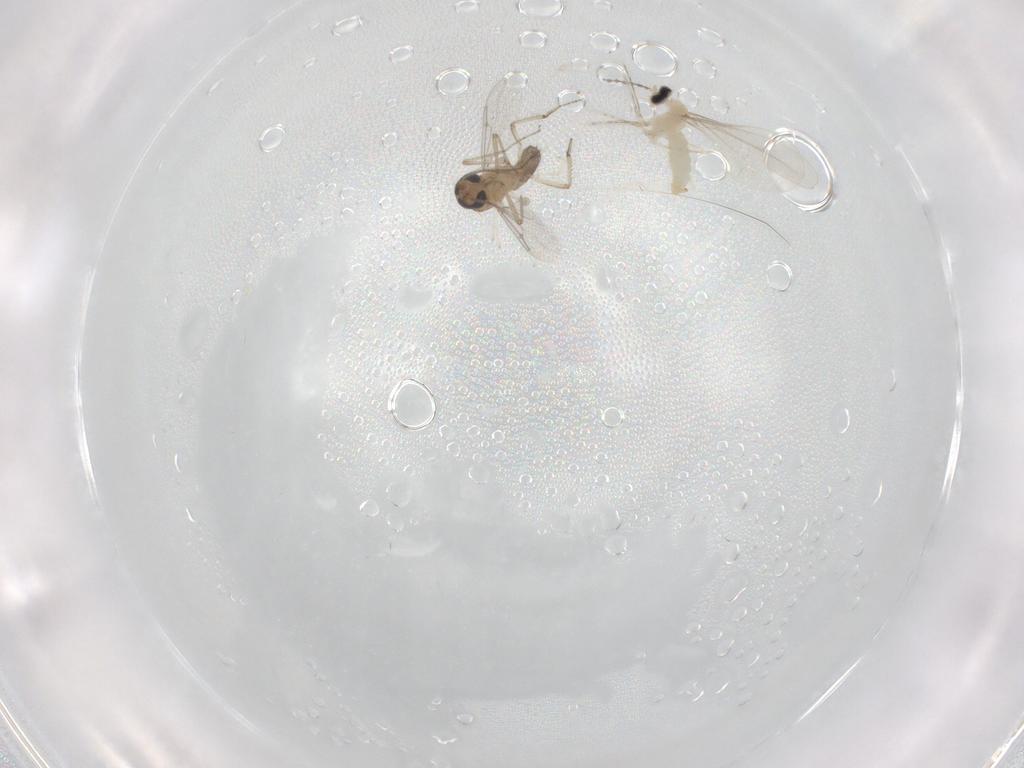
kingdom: Animalia
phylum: Arthropoda
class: Insecta
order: Diptera
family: Cecidomyiidae
